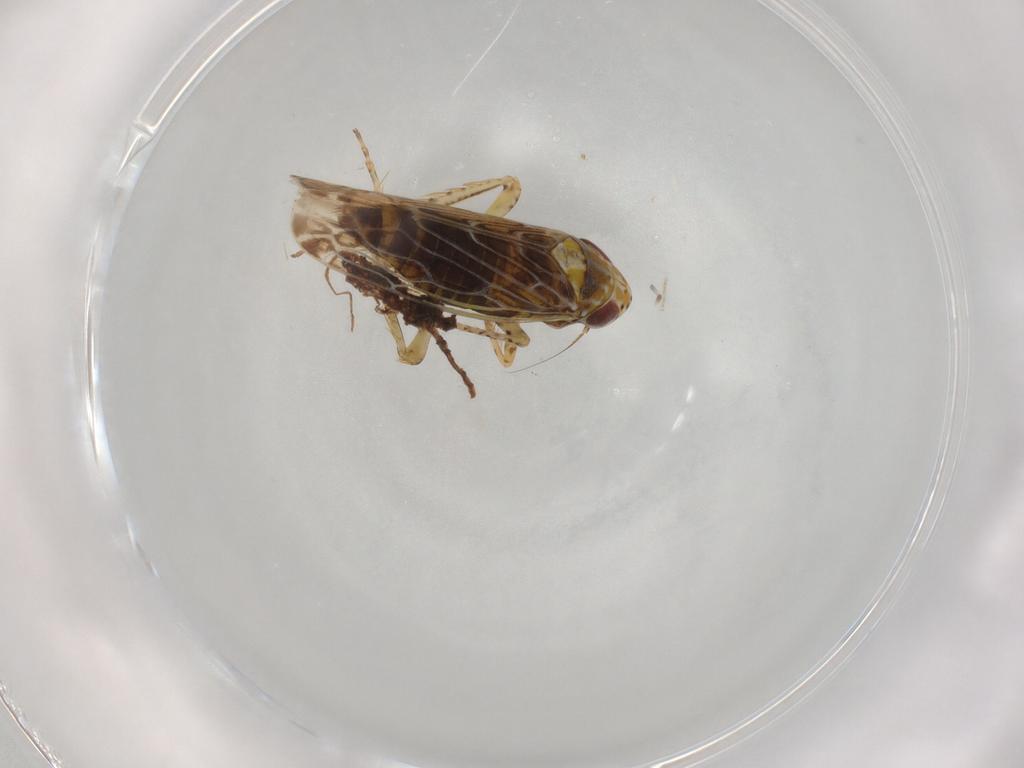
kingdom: Animalia
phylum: Arthropoda
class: Insecta
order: Hemiptera
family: Cicadellidae
